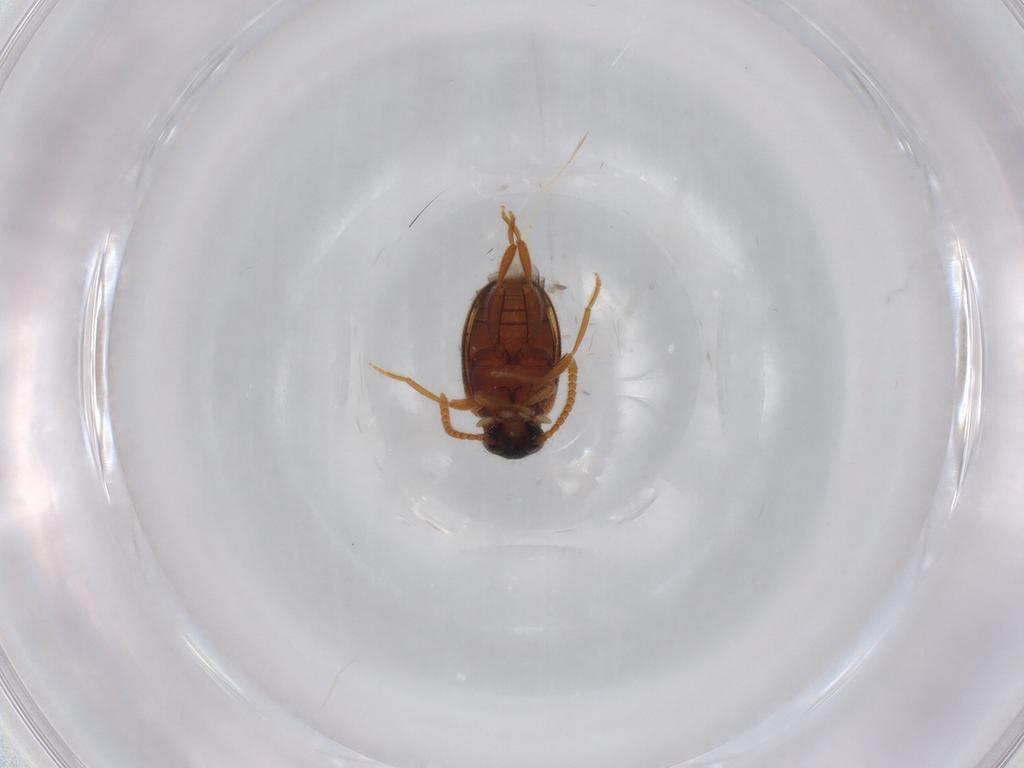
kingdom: Animalia
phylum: Arthropoda
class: Insecta
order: Coleoptera
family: Aderidae
